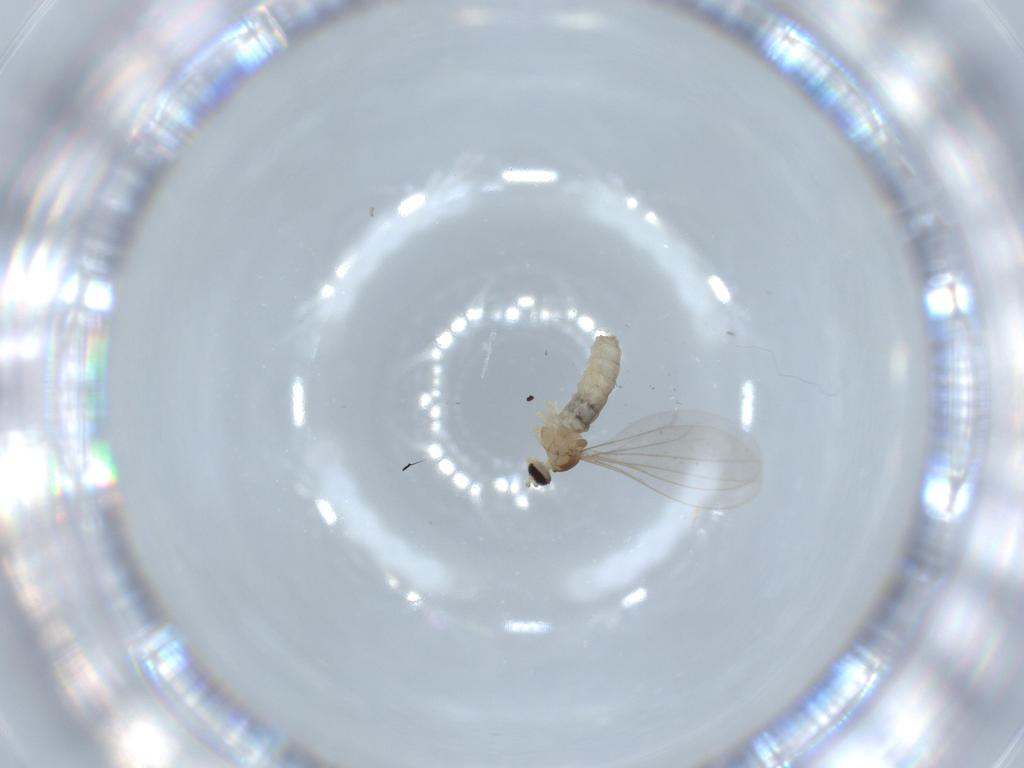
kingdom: Animalia
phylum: Arthropoda
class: Insecta
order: Diptera
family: Cecidomyiidae
